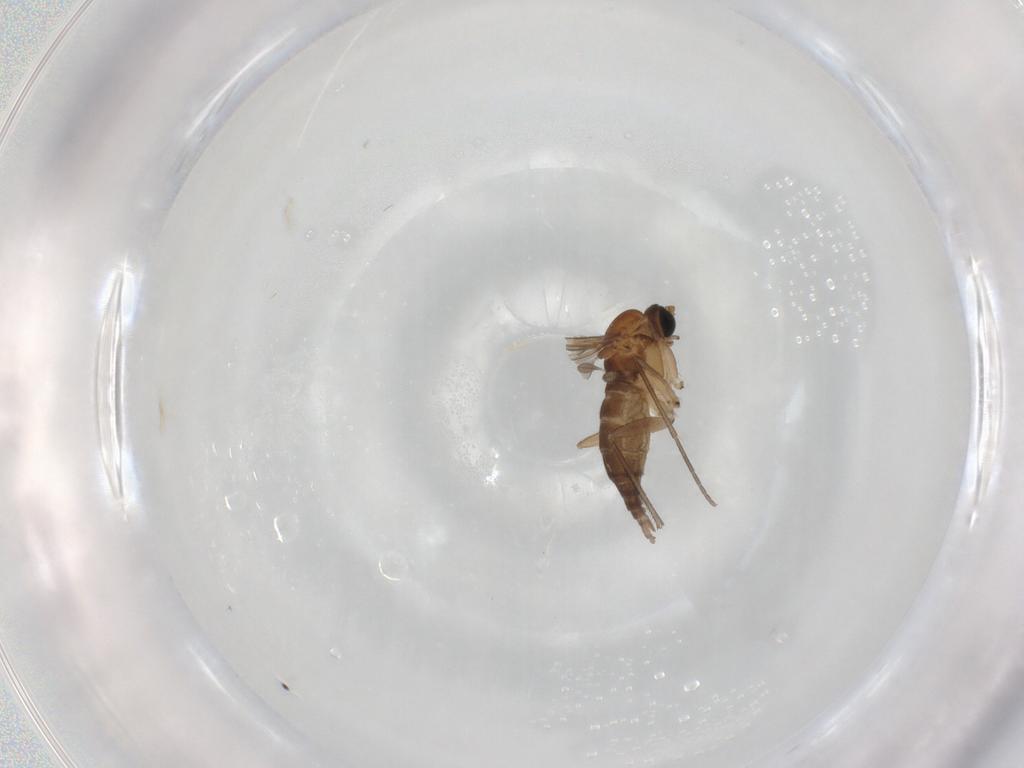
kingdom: Animalia
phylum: Arthropoda
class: Insecta
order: Diptera
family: Sciaridae
